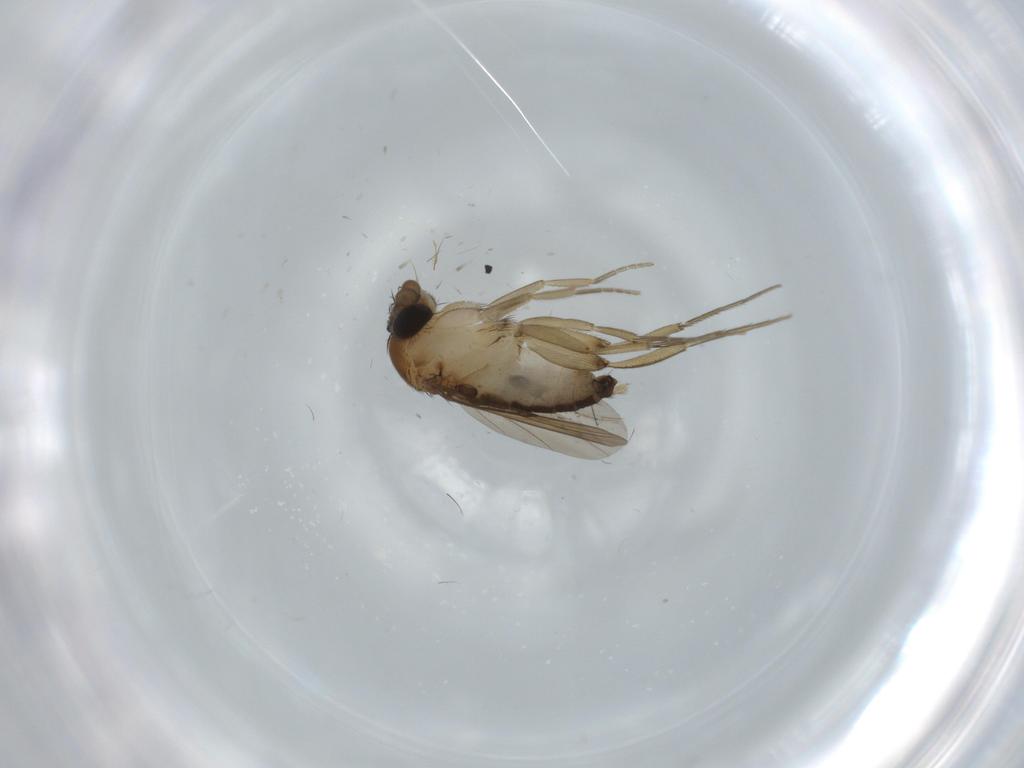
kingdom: Animalia
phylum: Arthropoda
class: Insecta
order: Diptera
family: Phoridae
